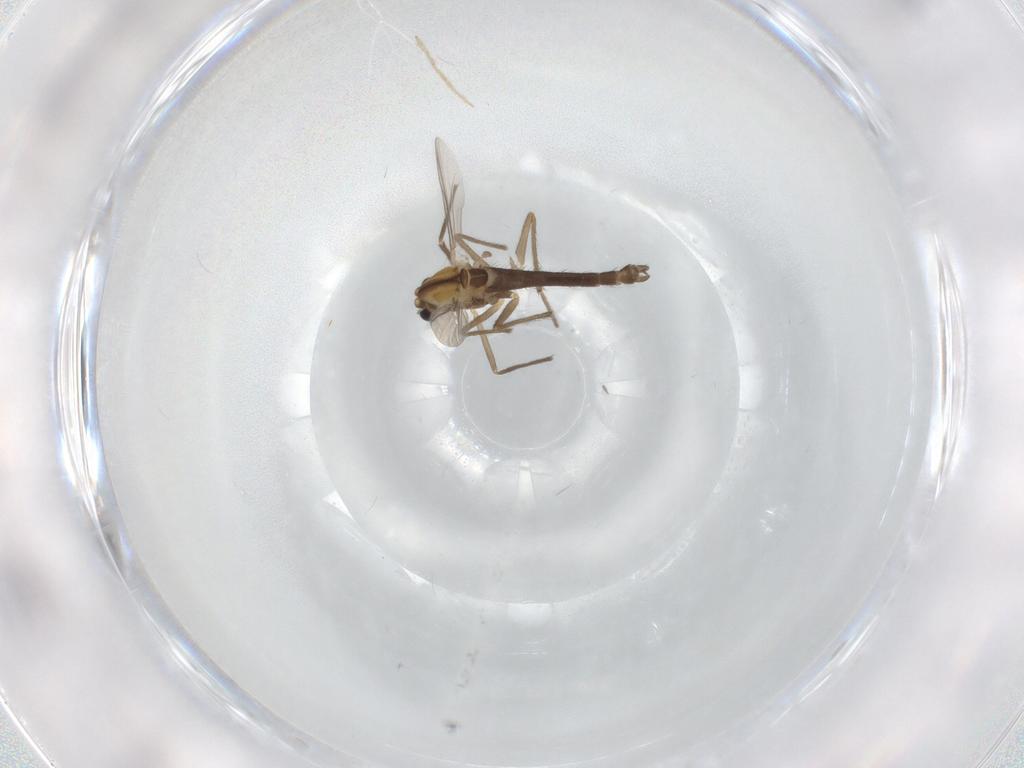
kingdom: Animalia
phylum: Arthropoda
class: Insecta
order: Diptera
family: Chironomidae
